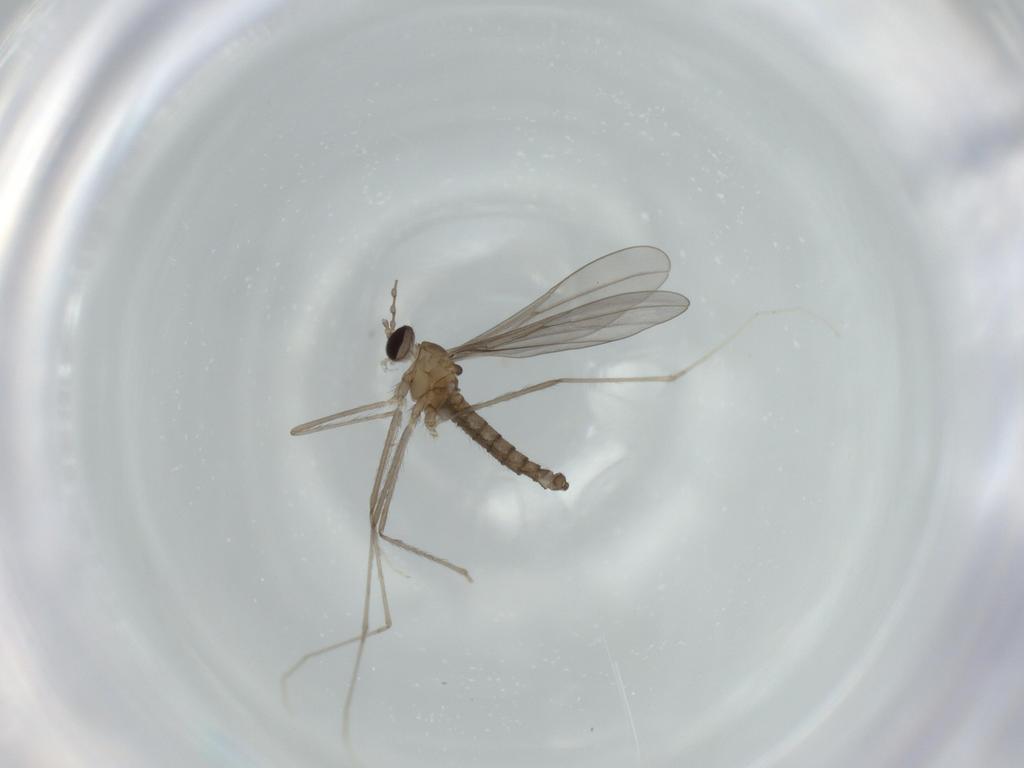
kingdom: Animalia
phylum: Arthropoda
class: Insecta
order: Diptera
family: Cecidomyiidae
